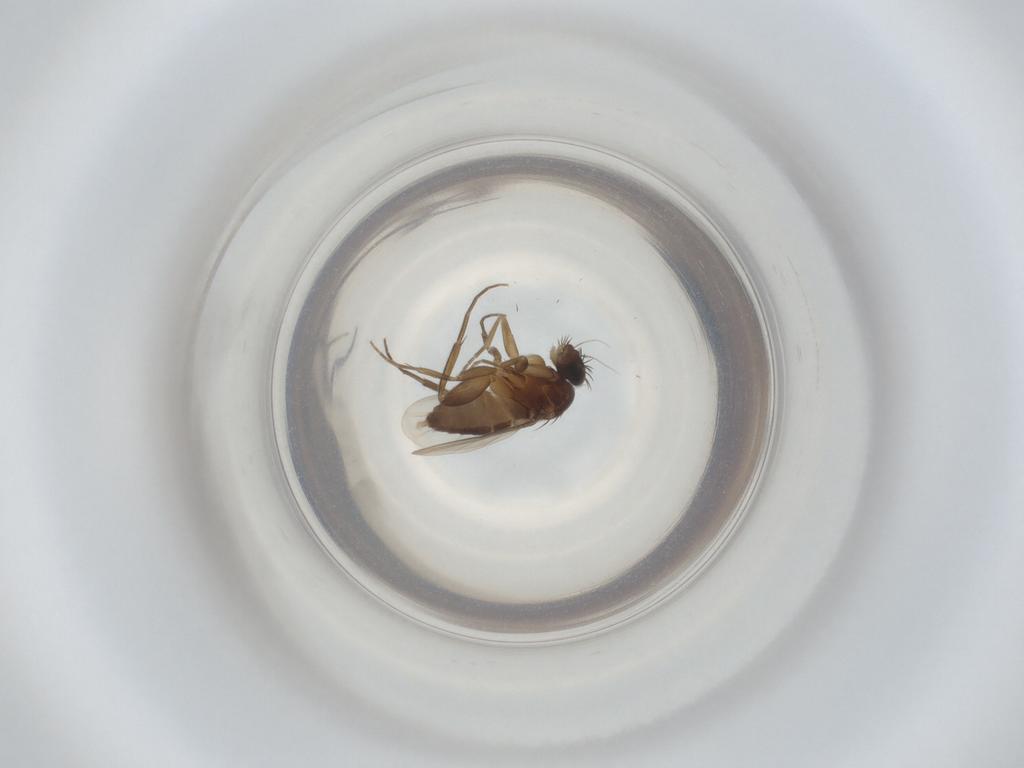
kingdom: Animalia
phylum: Arthropoda
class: Insecta
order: Diptera
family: Phoridae
